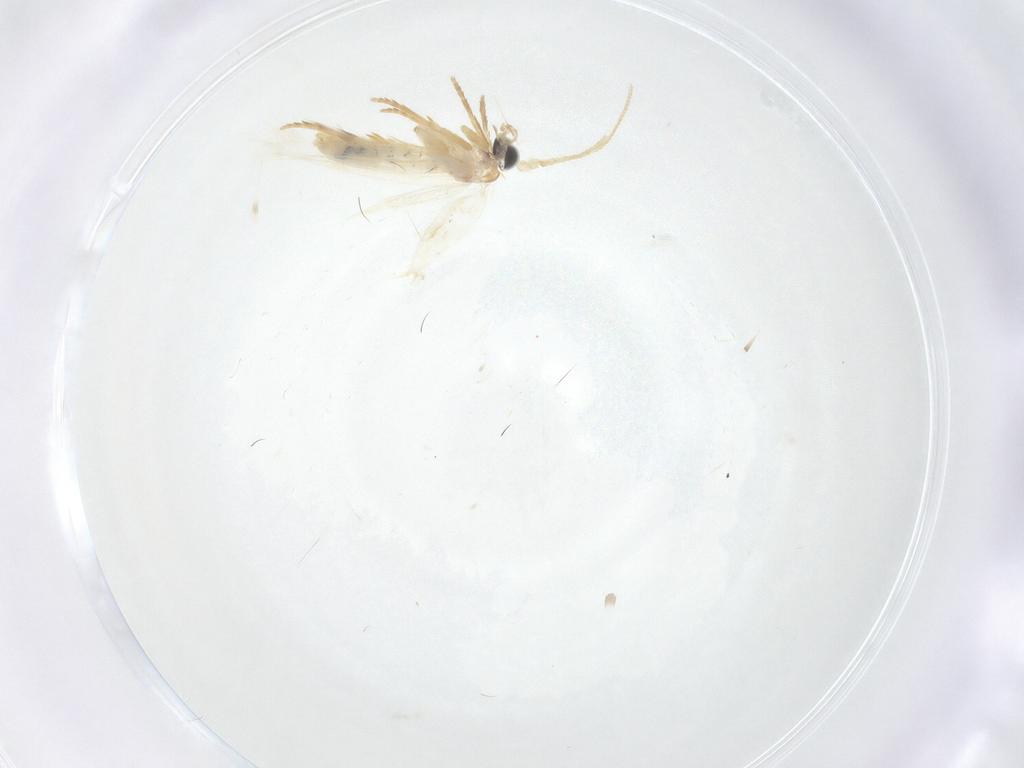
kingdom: Animalia
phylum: Arthropoda
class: Insecta
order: Lepidoptera
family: Nepticulidae
